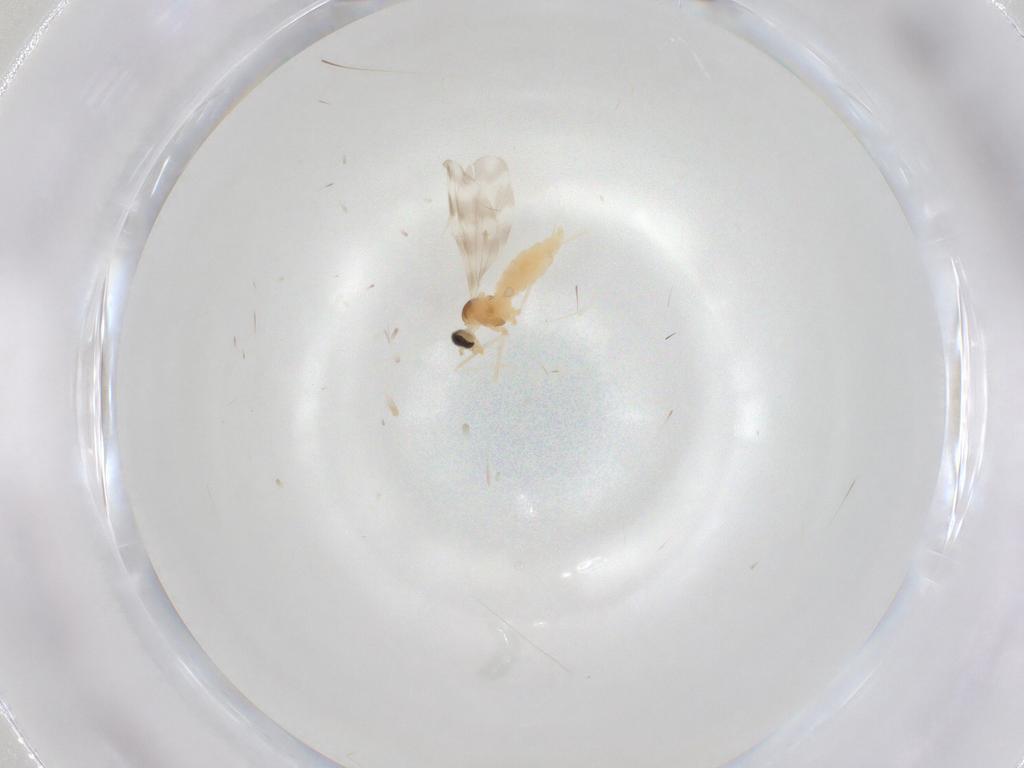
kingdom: Animalia
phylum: Arthropoda
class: Insecta
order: Diptera
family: Cecidomyiidae
